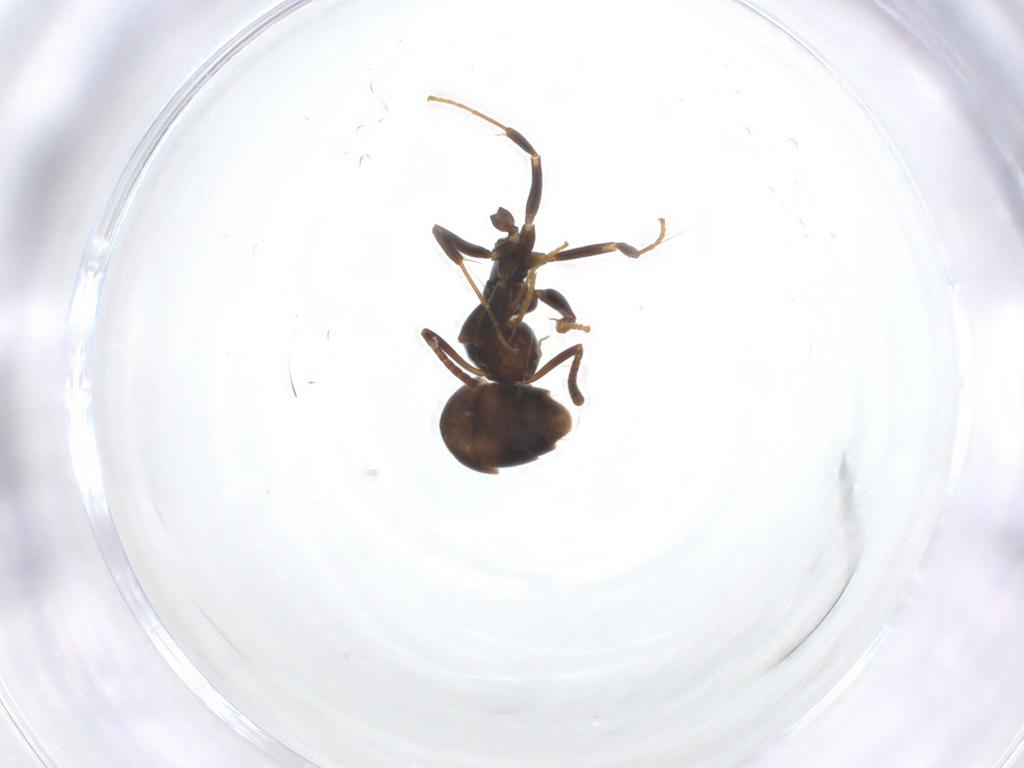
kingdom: Animalia
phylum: Arthropoda
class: Insecta
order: Hymenoptera
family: Formicidae
